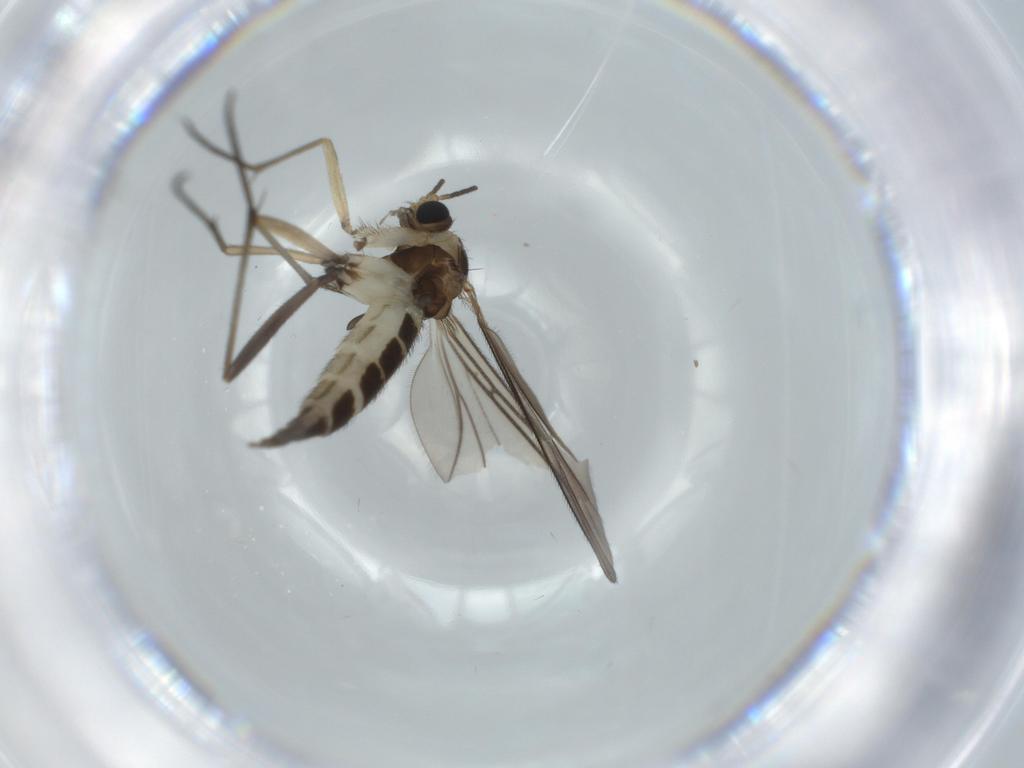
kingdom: Animalia
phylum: Arthropoda
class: Insecta
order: Diptera
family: Sciaridae
